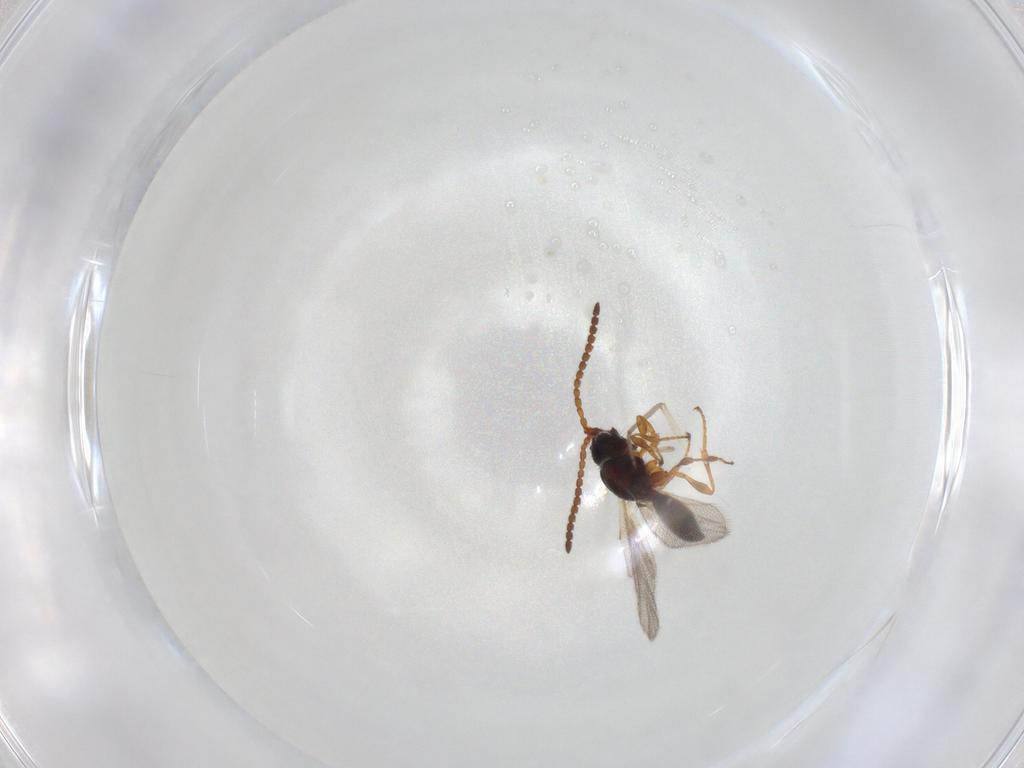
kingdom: Animalia
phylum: Arthropoda
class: Insecta
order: Hymenoptera
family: Diapriidae
